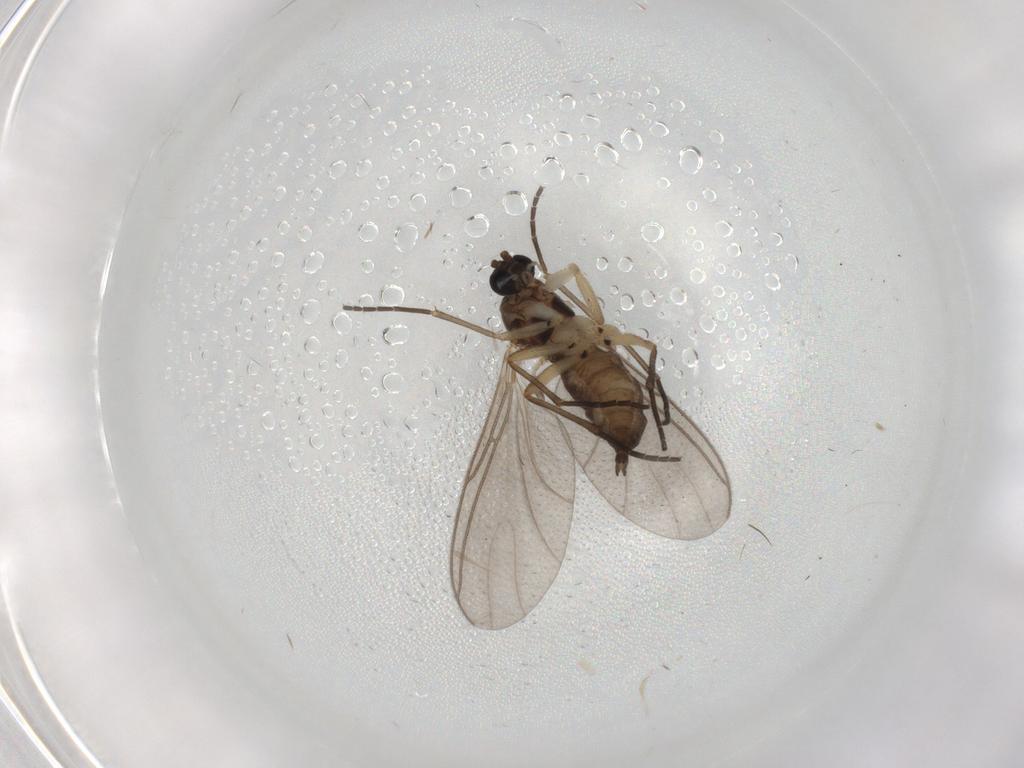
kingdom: Animalia
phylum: Arthropoda
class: Insecta
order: Diptera
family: Sciaridae
